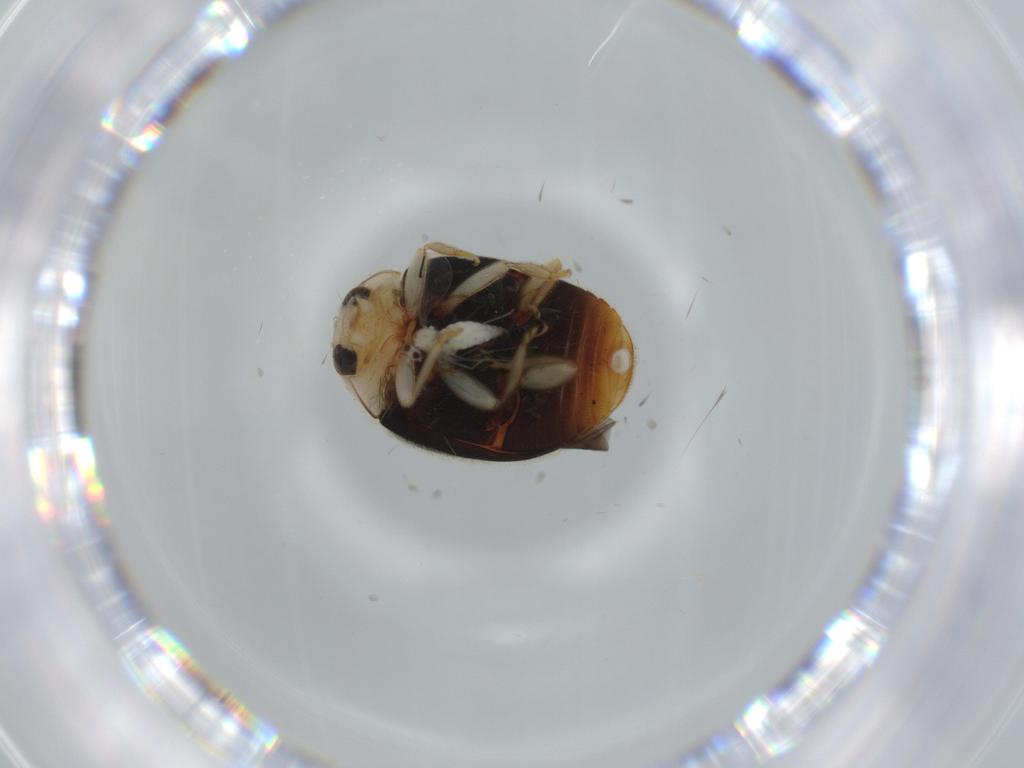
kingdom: Animalia
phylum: Arthropoda
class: Insecta
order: Coleoptera
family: Coccinellidae
